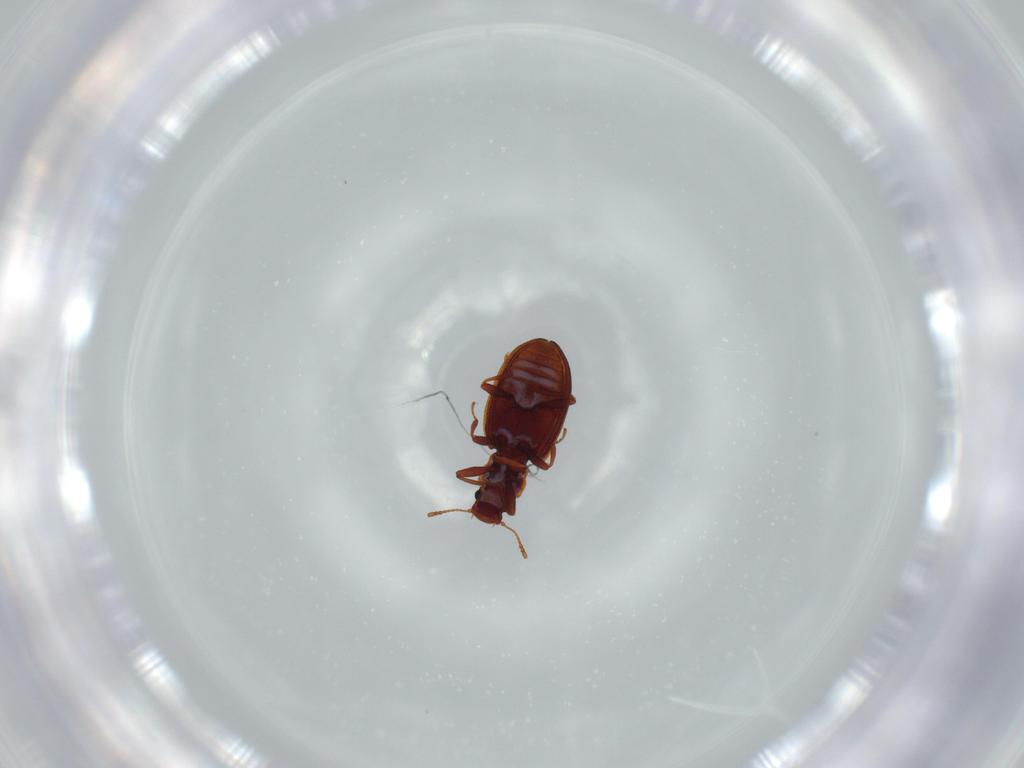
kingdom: Animalia
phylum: Arthropoda
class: Insecta
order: Coleoptera
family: Latridiidae
